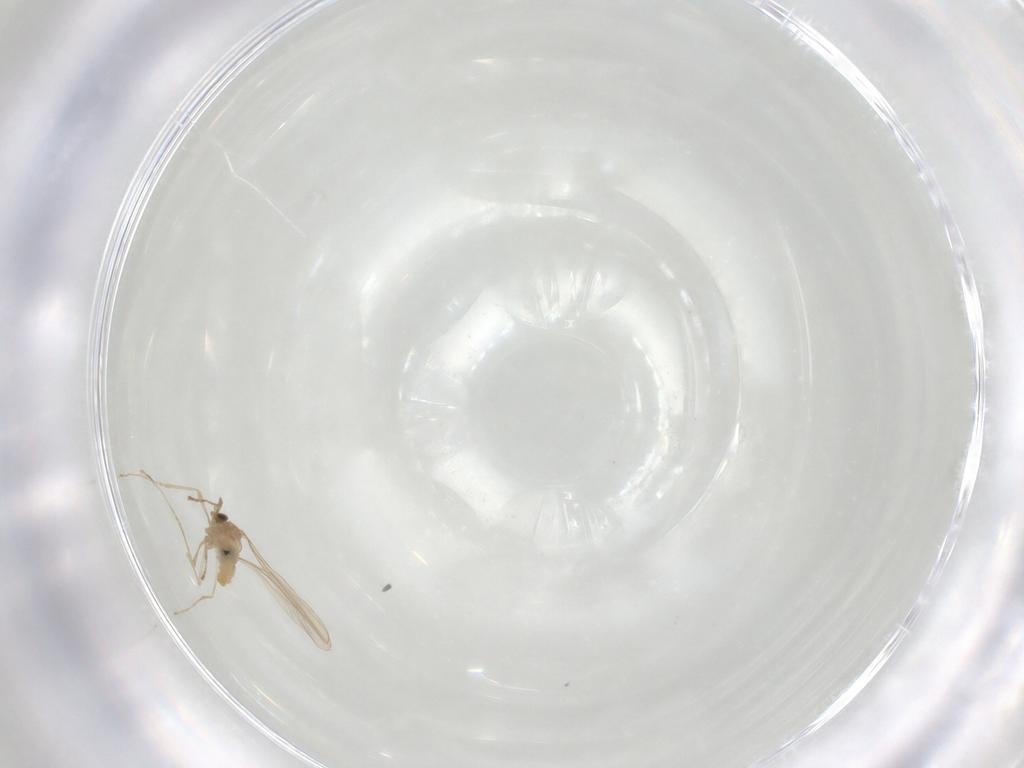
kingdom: Animalia
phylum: Arthropoda
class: Insecta
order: Diptera
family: Cecidomyiidae
